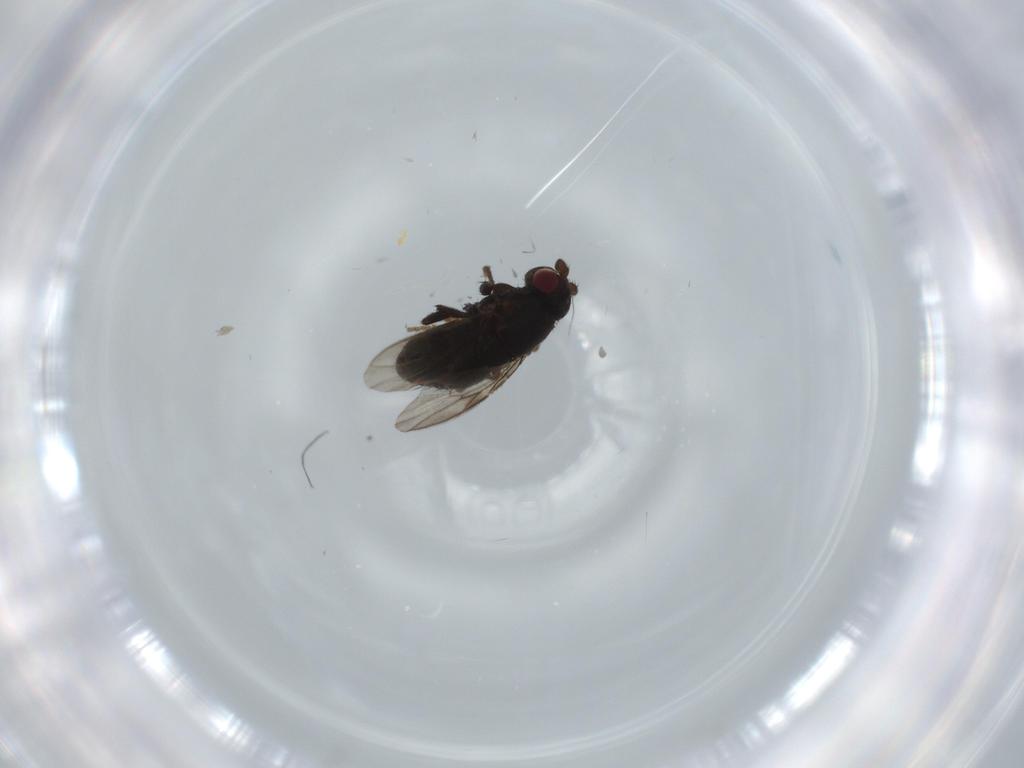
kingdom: Animalia
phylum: Arthropoda
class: Insecta
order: Diptera
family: Sphaeroceridae
